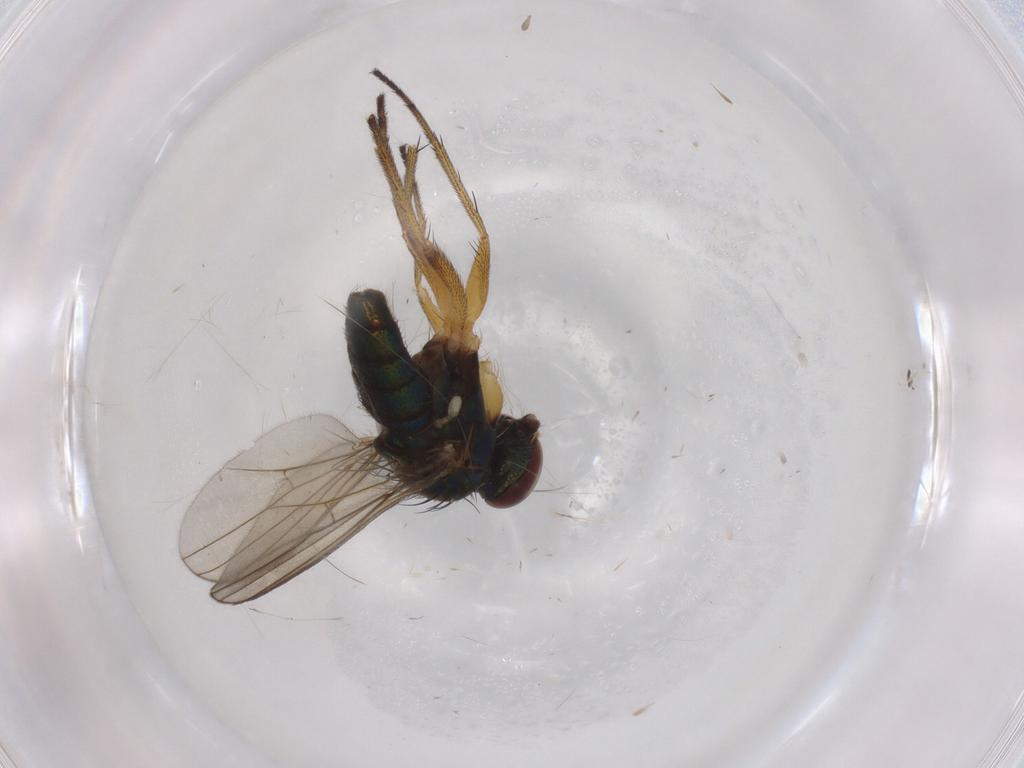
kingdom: Animalia
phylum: Arthropoda
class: Insecta
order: Diptera
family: Dolichopodidae
